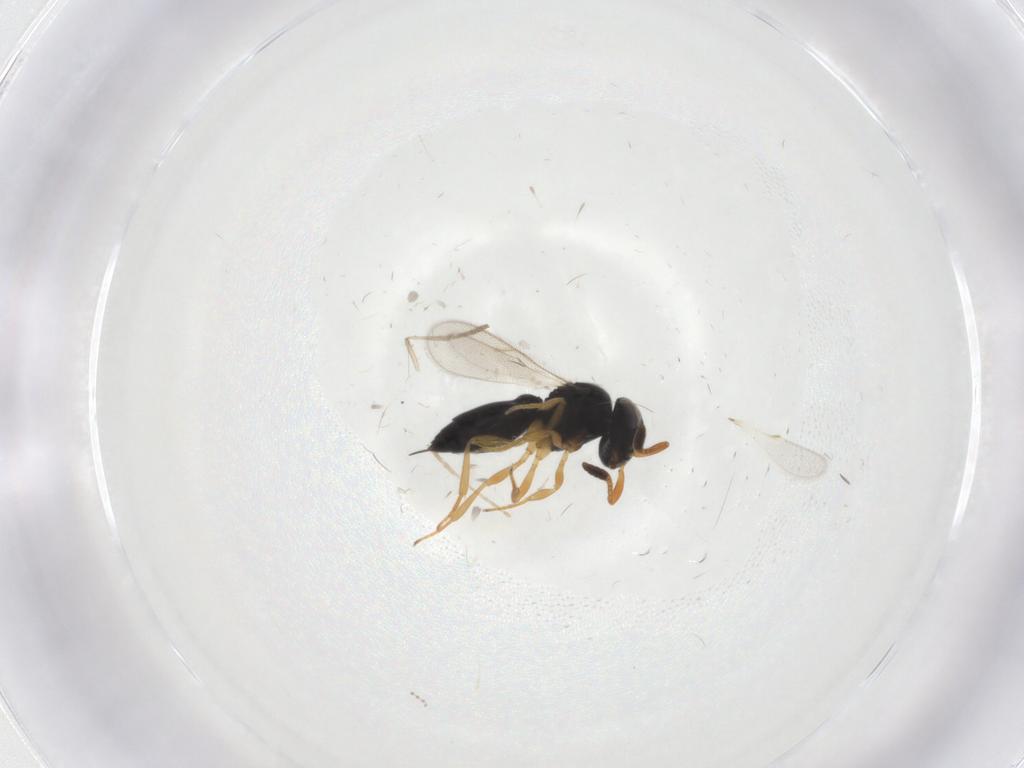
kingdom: Animalia
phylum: Arthropoda
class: Insecta
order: Hymenoptera
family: Scelionidae
